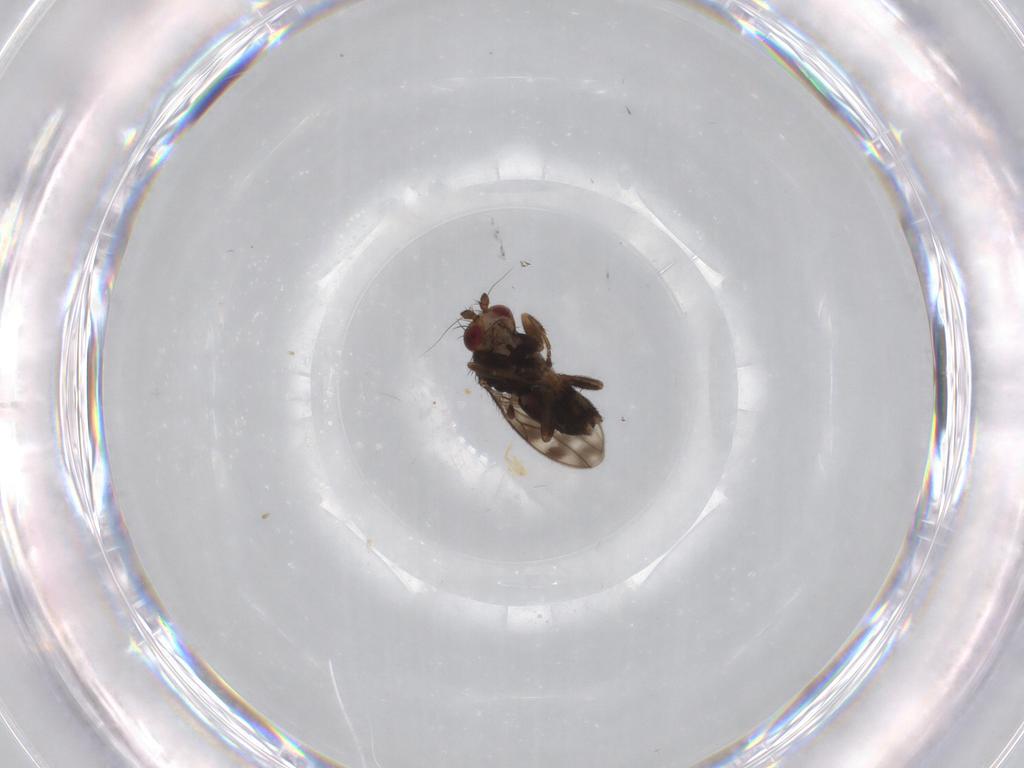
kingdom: Animalia
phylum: Arthropoda
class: Insecta
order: Diptera
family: Sphaeroceridae
